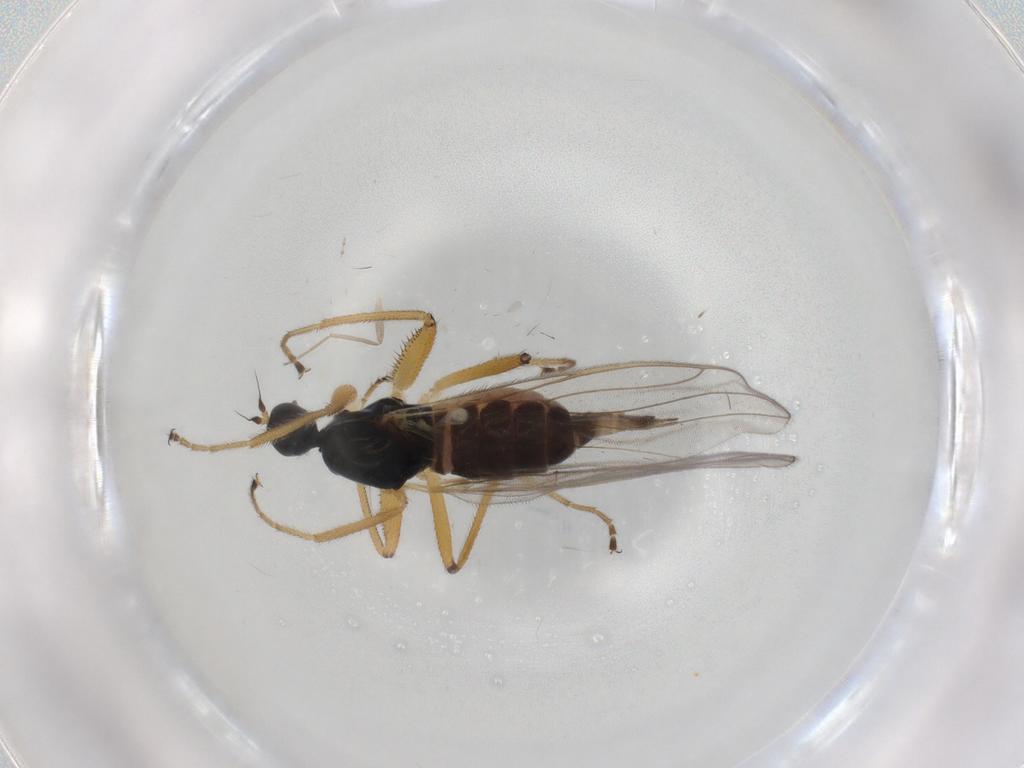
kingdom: Animalia
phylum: Arthropoda
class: Insecta
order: Diptera
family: Hybotidae
